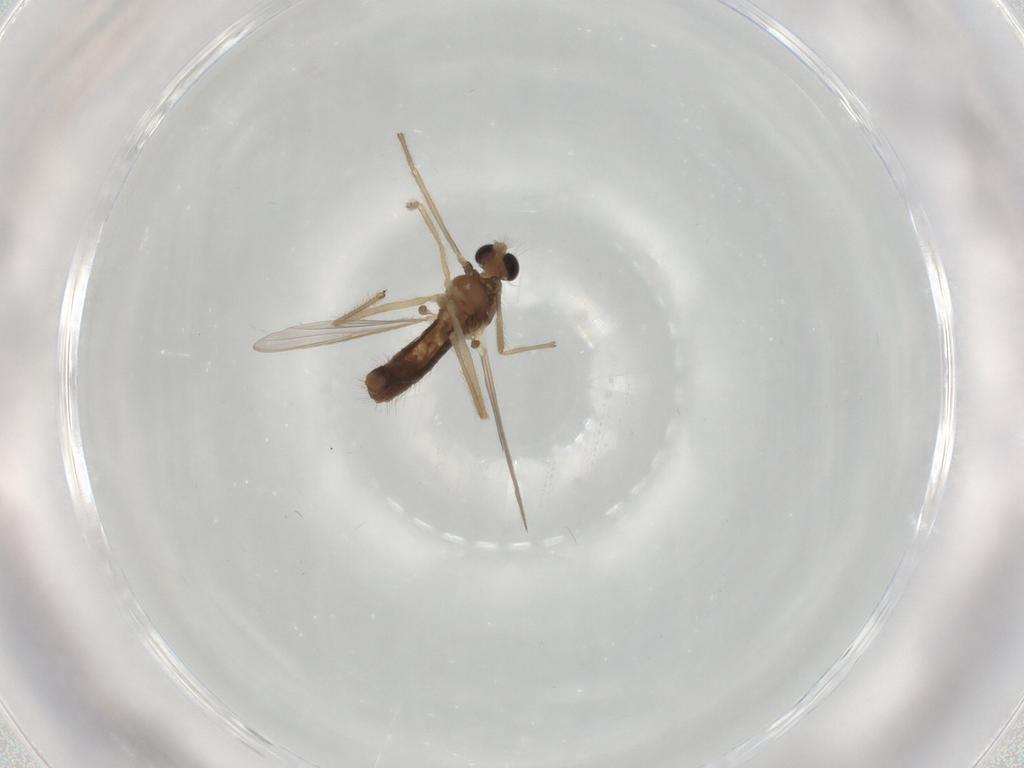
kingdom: Animalia
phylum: Arthropoda
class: Insecta
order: Diptera
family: Chironomidae
